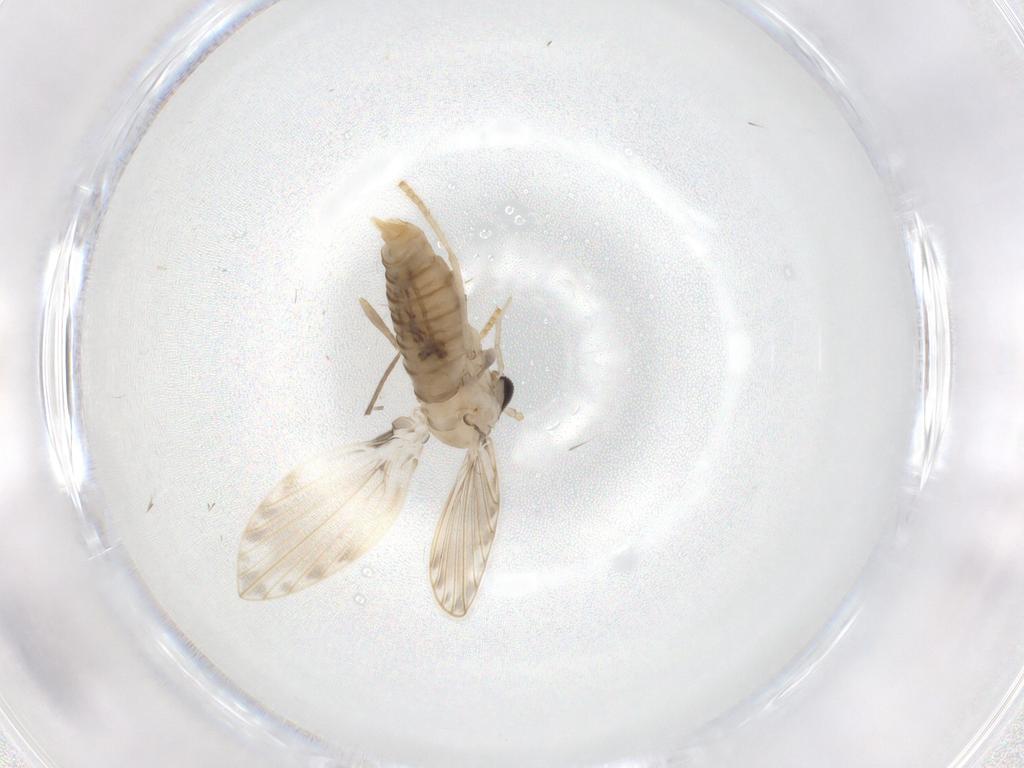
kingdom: Animalia
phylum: Arthropoda
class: Insecta
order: Diptera
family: Psychodidae
